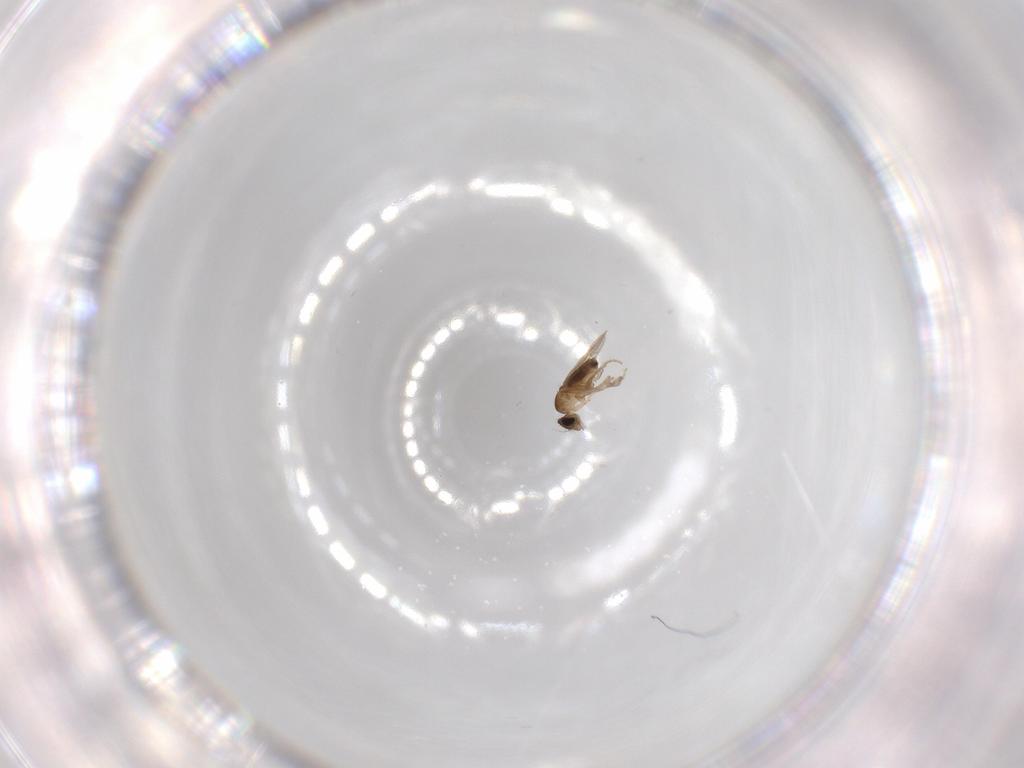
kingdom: Animalia
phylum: Arthropoda
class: Insecta
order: Diptera
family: Phoridae
